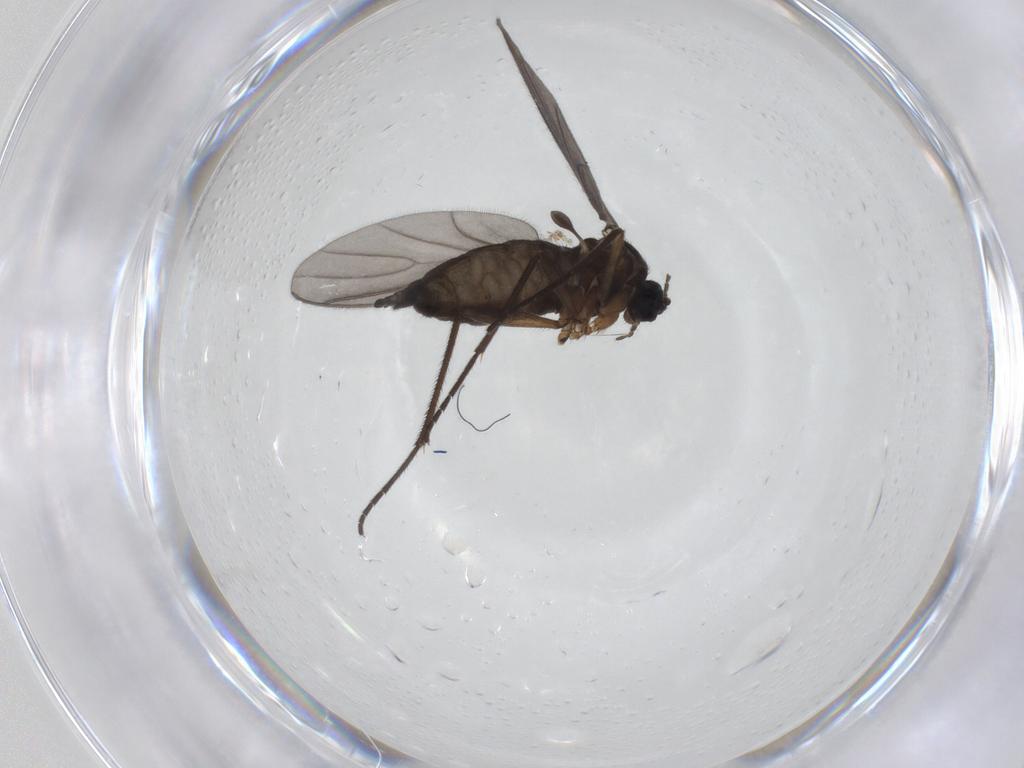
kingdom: Animalia
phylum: Arthropoda
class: Insecta
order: Diptera
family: Sciaridae
